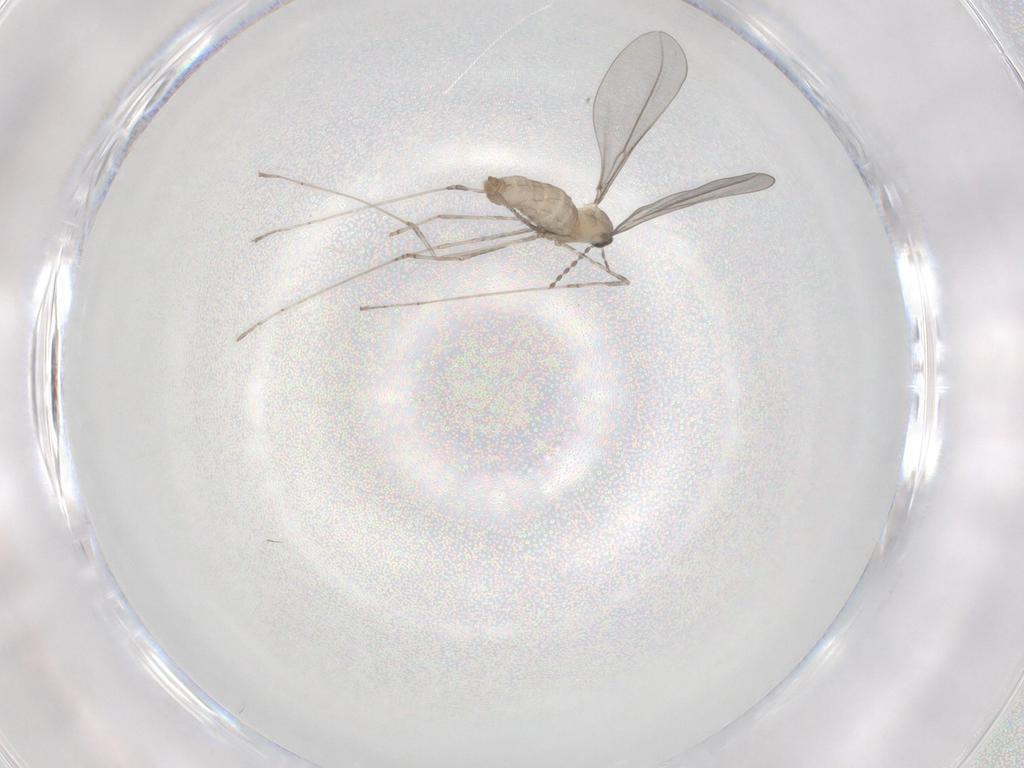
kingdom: Animalia
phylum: Arthropoda
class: Insecta
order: Diptera
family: Cecidomyiidae
